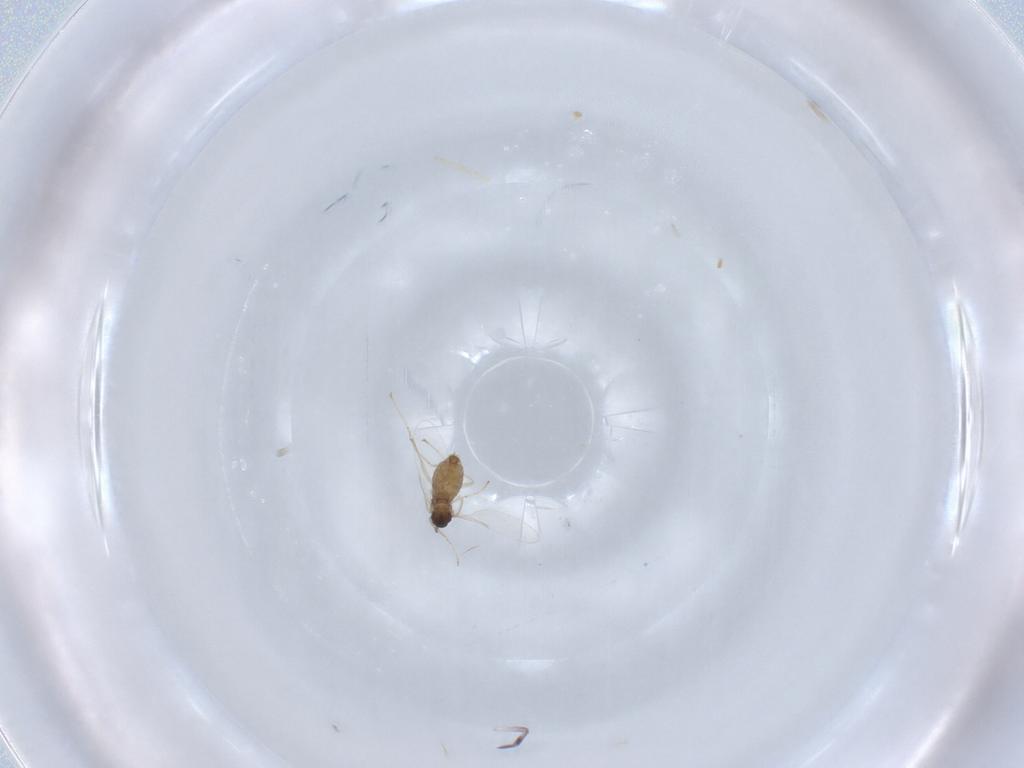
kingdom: Animalia
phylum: Arthropoda
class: Insecta
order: Diptera
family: Cecidomyiidae
